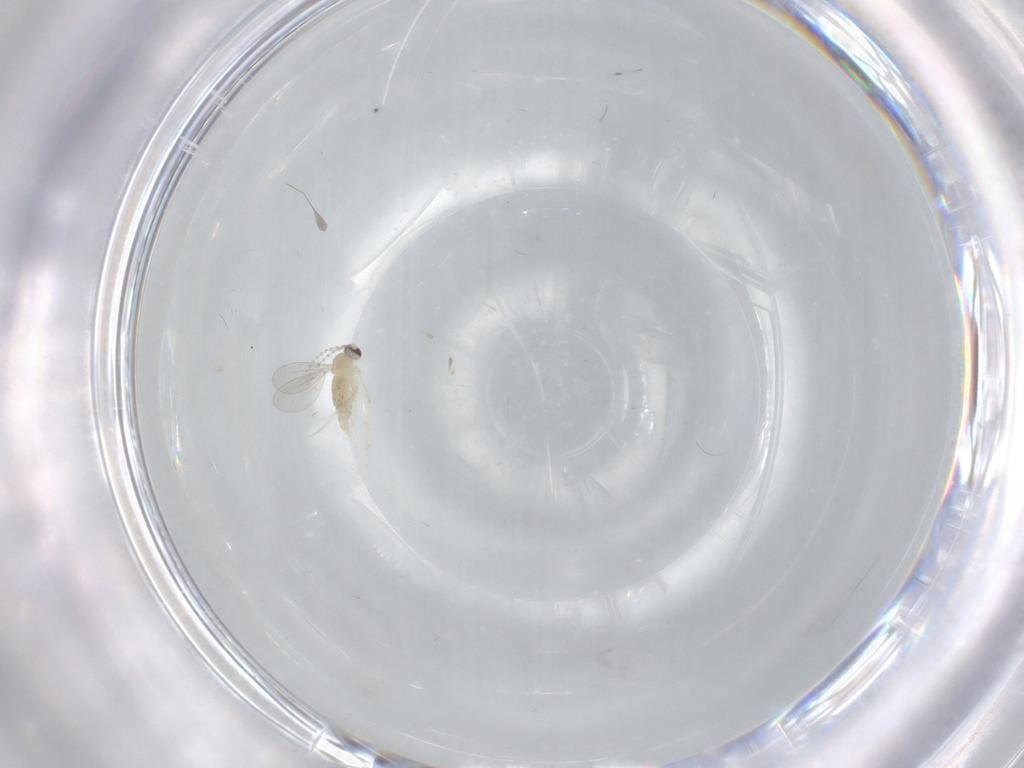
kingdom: Animalia
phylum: Arthropoda
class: Insecta
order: Diptera
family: Cecidomyiidae
